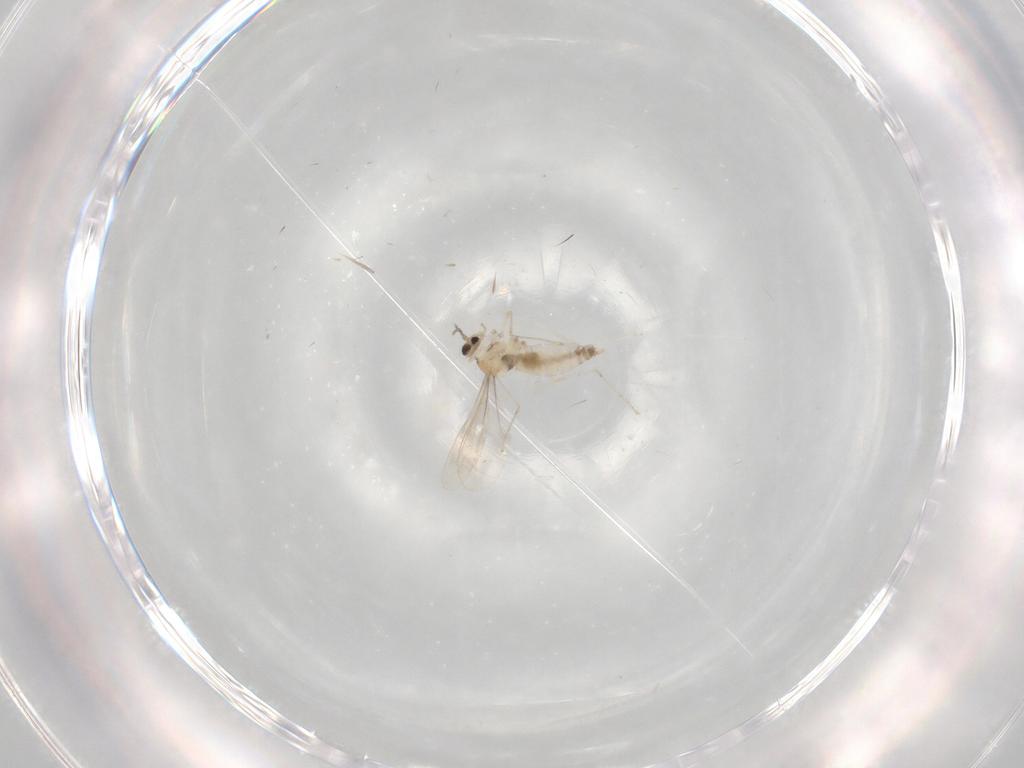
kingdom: Animalia
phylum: Arthropoda
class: Insecta
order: Diptera
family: Cecidomyiidae
